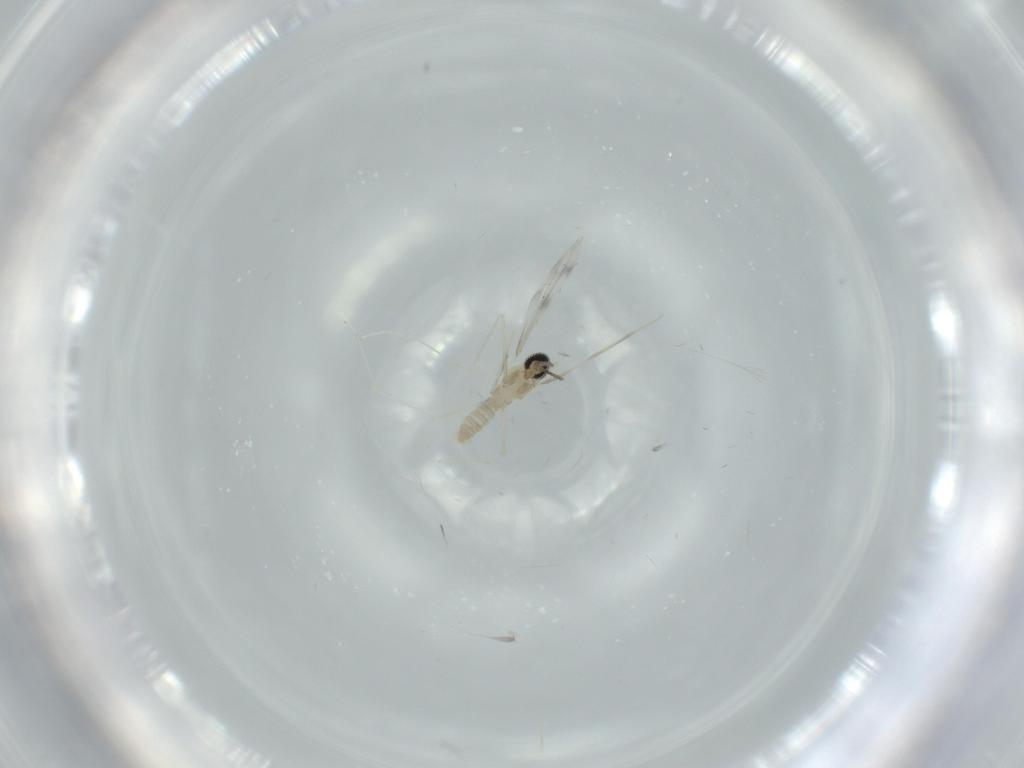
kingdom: Animalia
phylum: Arthropoda
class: Insecta
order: Diptera
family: Cecidomyiidae
